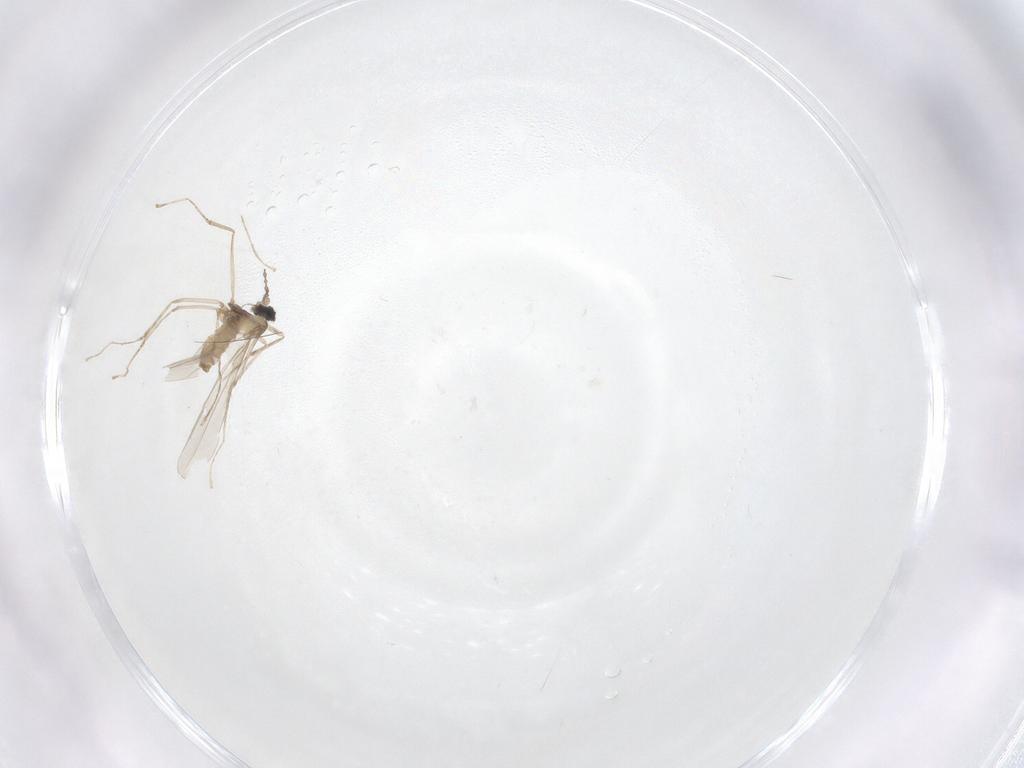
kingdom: Animalia
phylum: Arthropoda
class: Insecta
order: Diptera
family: Cecidomyiidae
